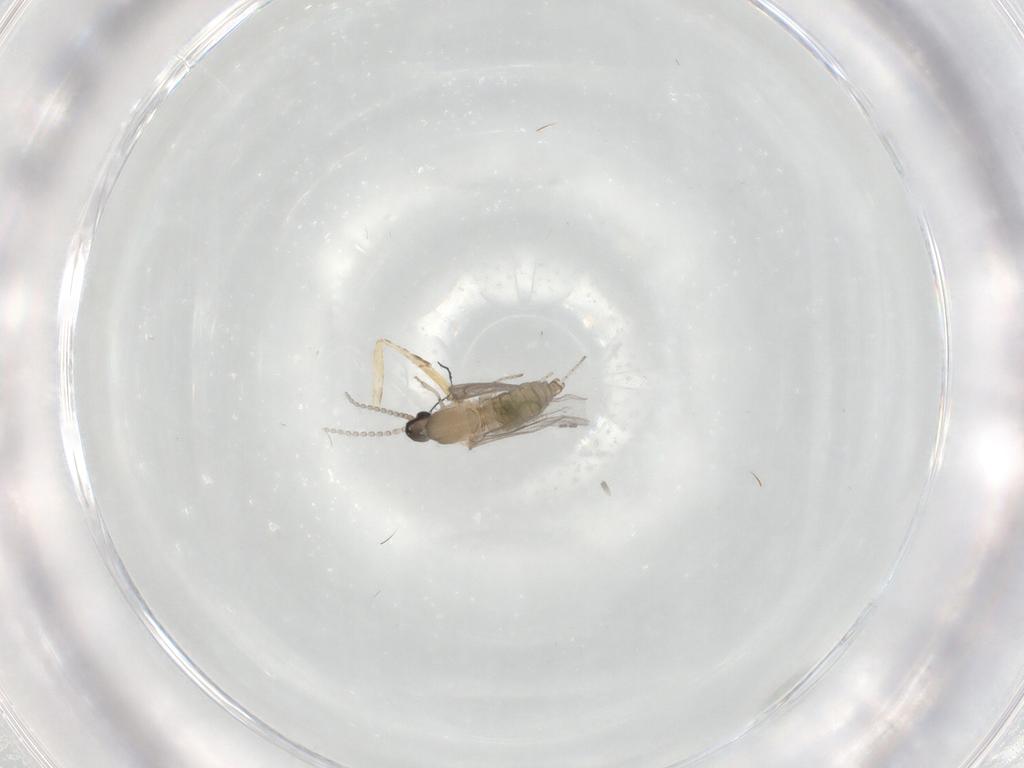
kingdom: Animalia
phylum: Arthropoda
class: Insecta
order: Diptera
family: Cecidomyiidae
